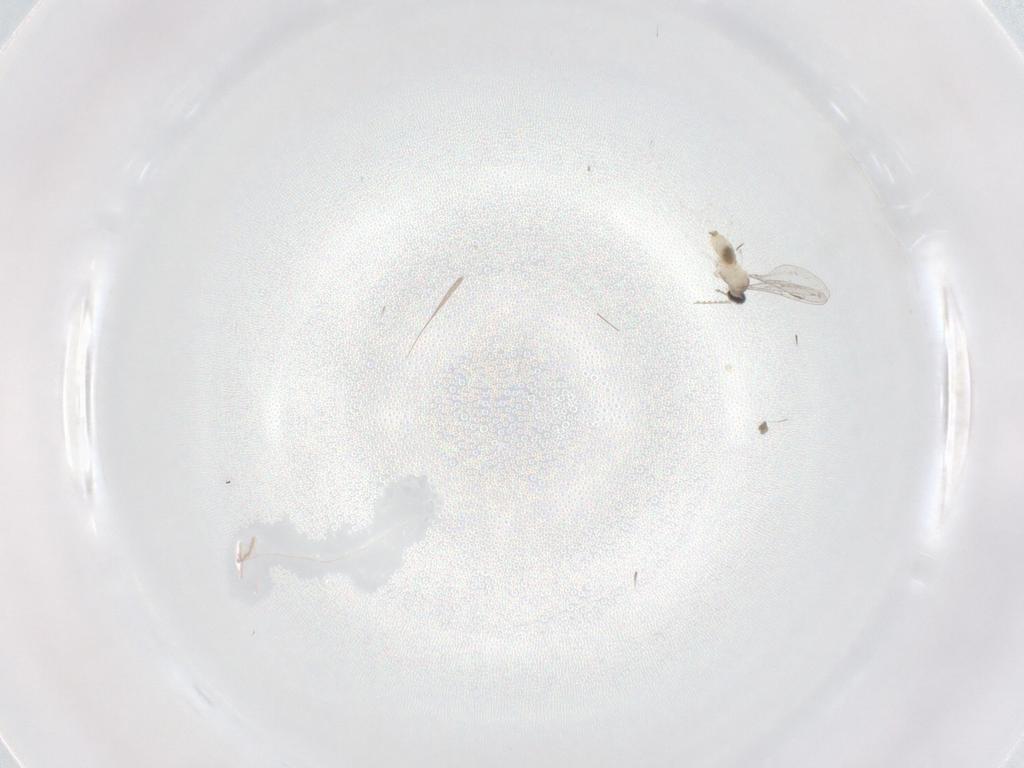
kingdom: Animalia
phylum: Arthropoda
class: Insecta
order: Diptera
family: Cecidomyiidae
